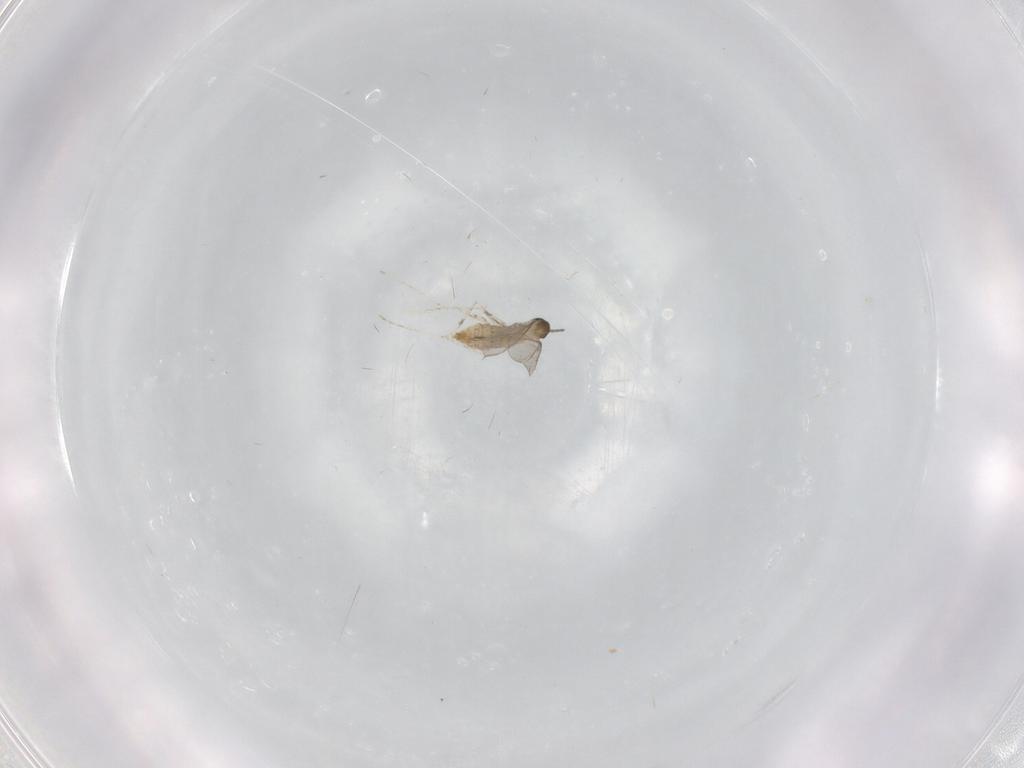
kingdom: Animalia
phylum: Arthropoda
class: Insecta
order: Diptera
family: Cecidomyiidae
